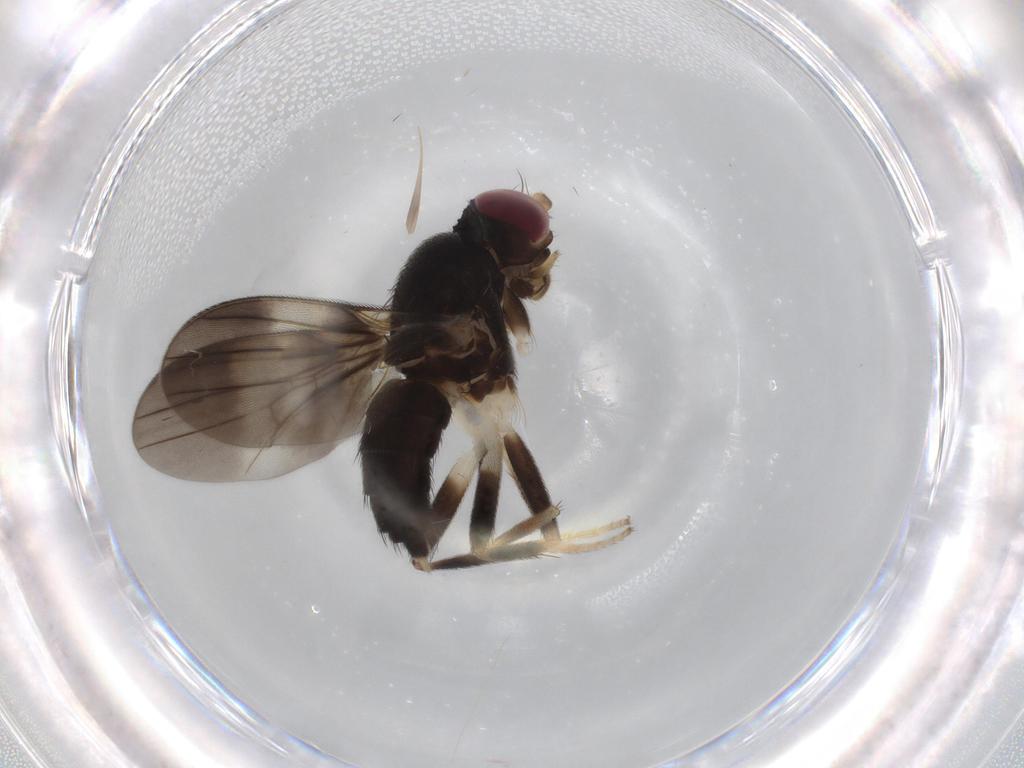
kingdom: Animalia
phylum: Arthropoda
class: Insecta
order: Diptera
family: Clusiidae
